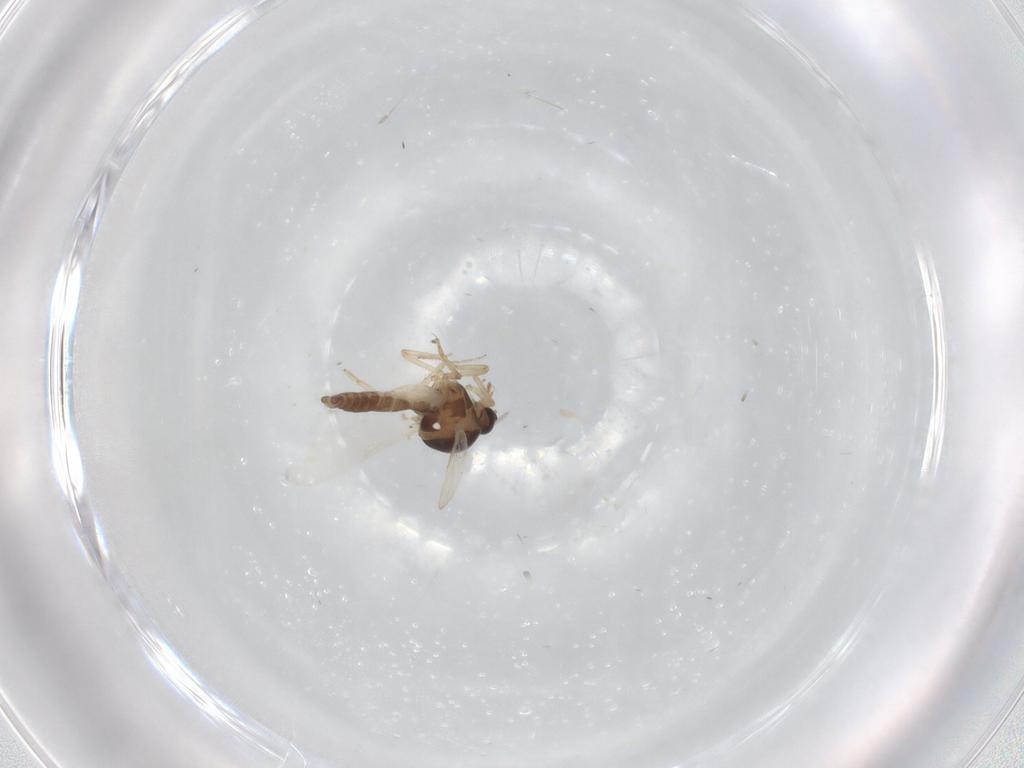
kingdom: Animalia
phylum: Arthropoda
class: Insecta
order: Diptera
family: Ceratopogonidae
